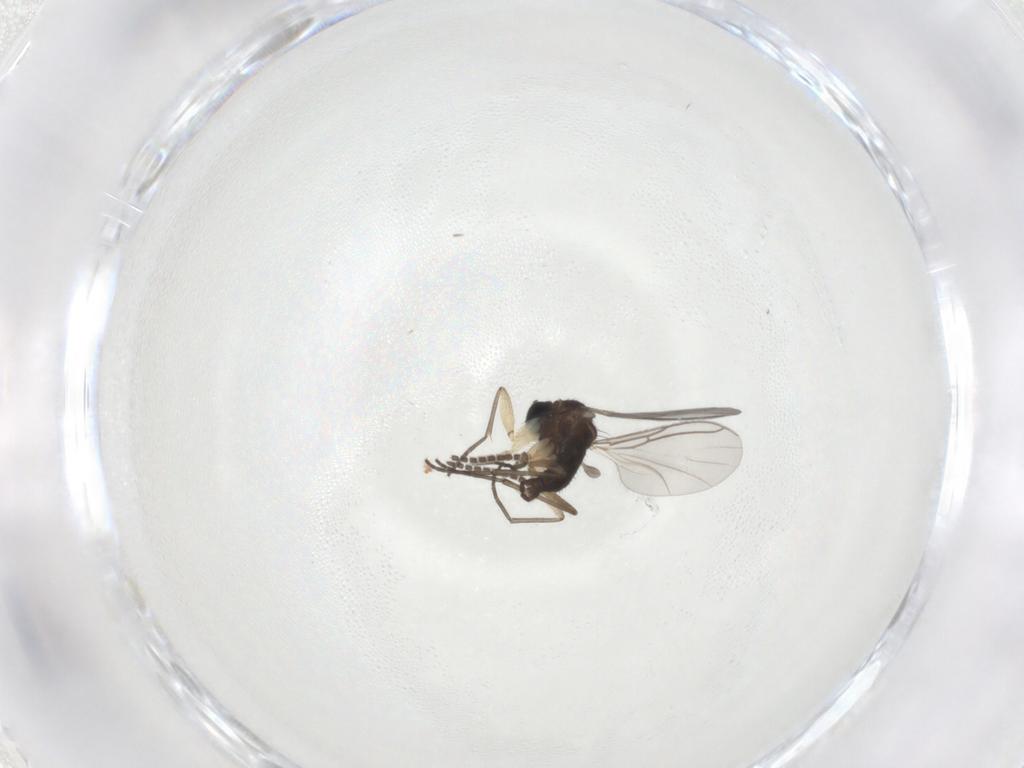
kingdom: Animalia
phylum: Arthropoda
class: Insecta
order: Diptera
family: Sciaridae
